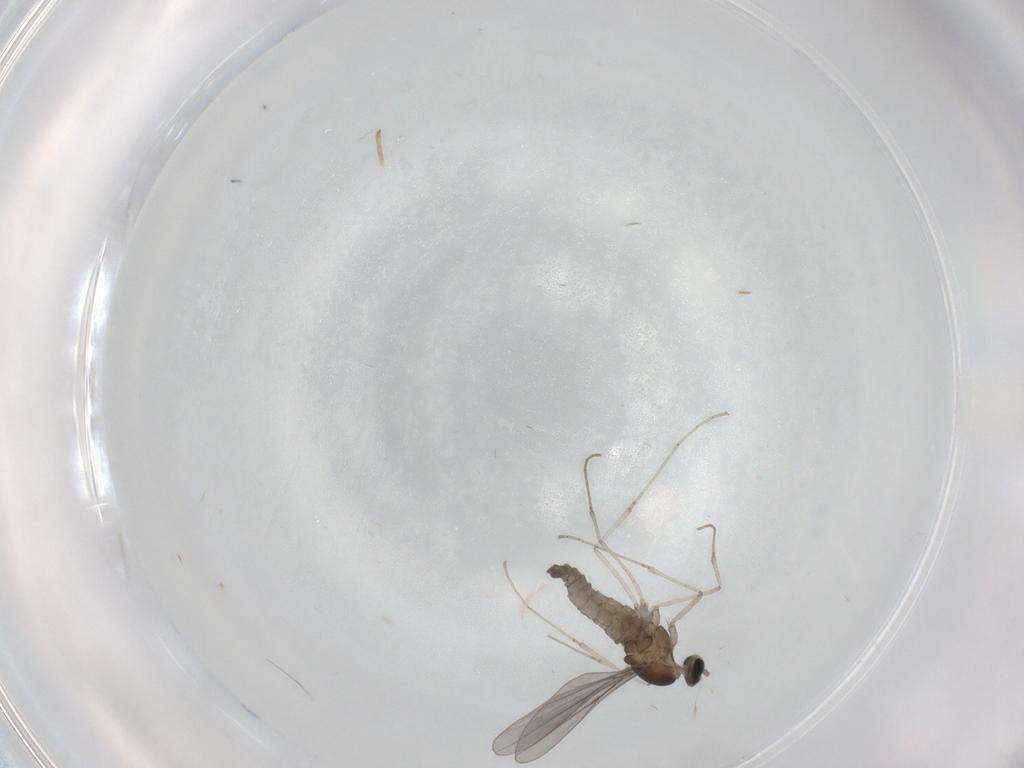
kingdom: Animalia
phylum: Arthropoda
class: Insecta
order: Diptera
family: Cecidomyiidae
